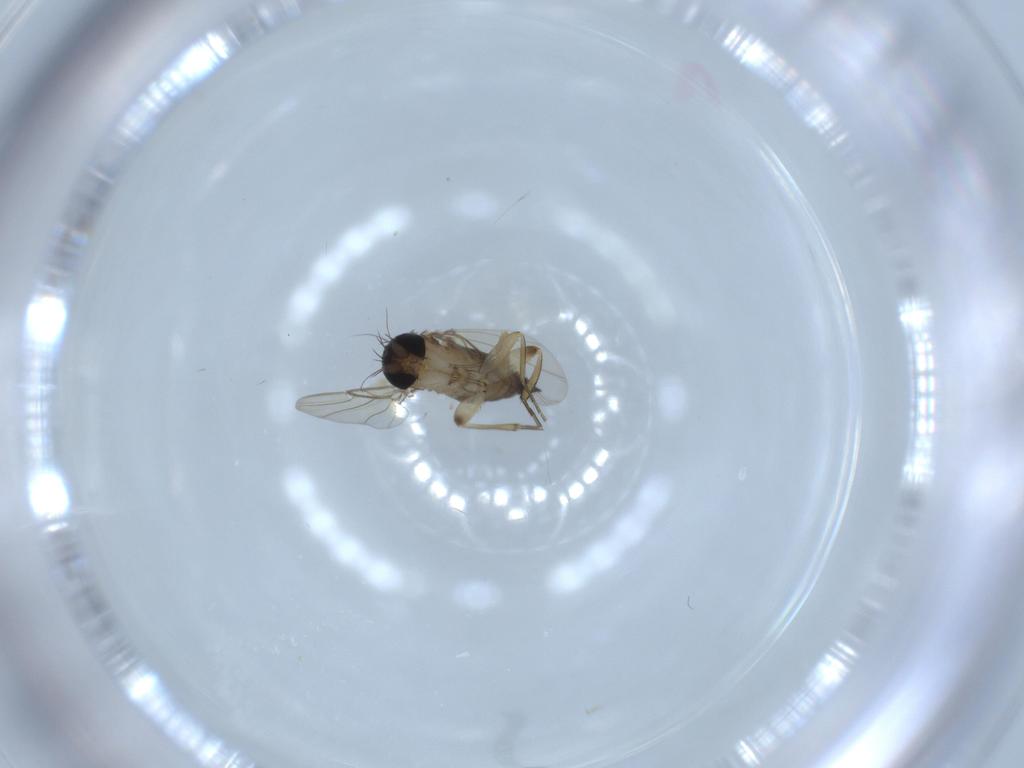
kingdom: Animalia
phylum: Arthropoda
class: Insecta
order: Diptera
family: Phoridae
